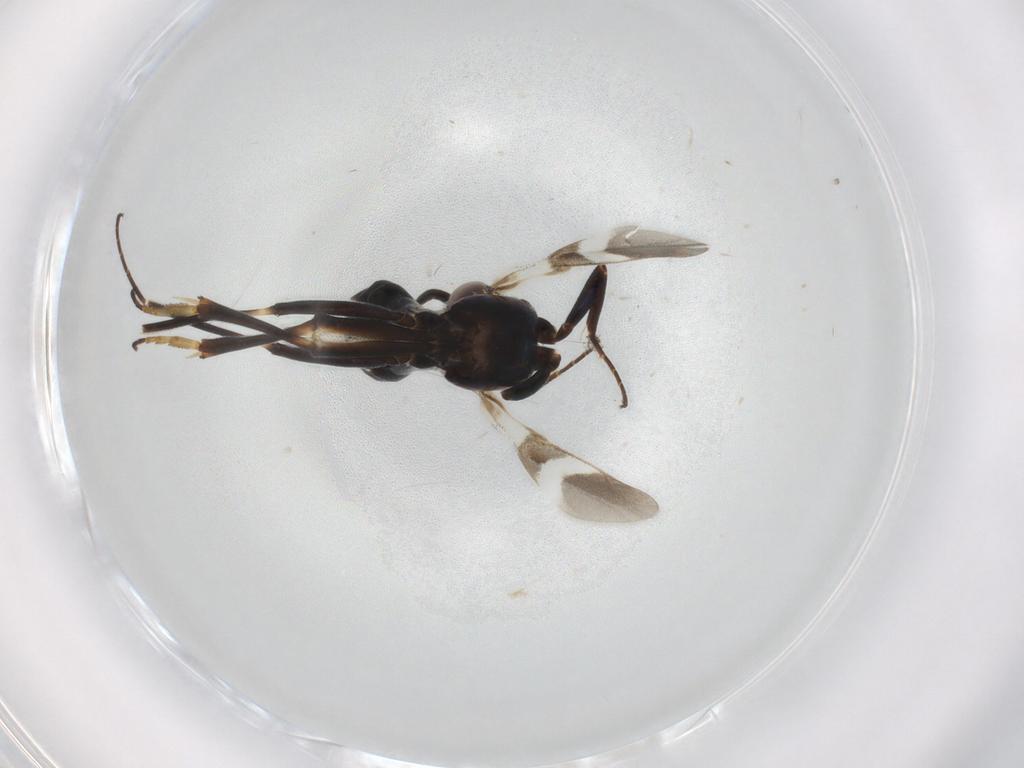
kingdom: Animalia
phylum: Arthropoda
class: Insecta
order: Hymenoptera
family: Eupelmidae
